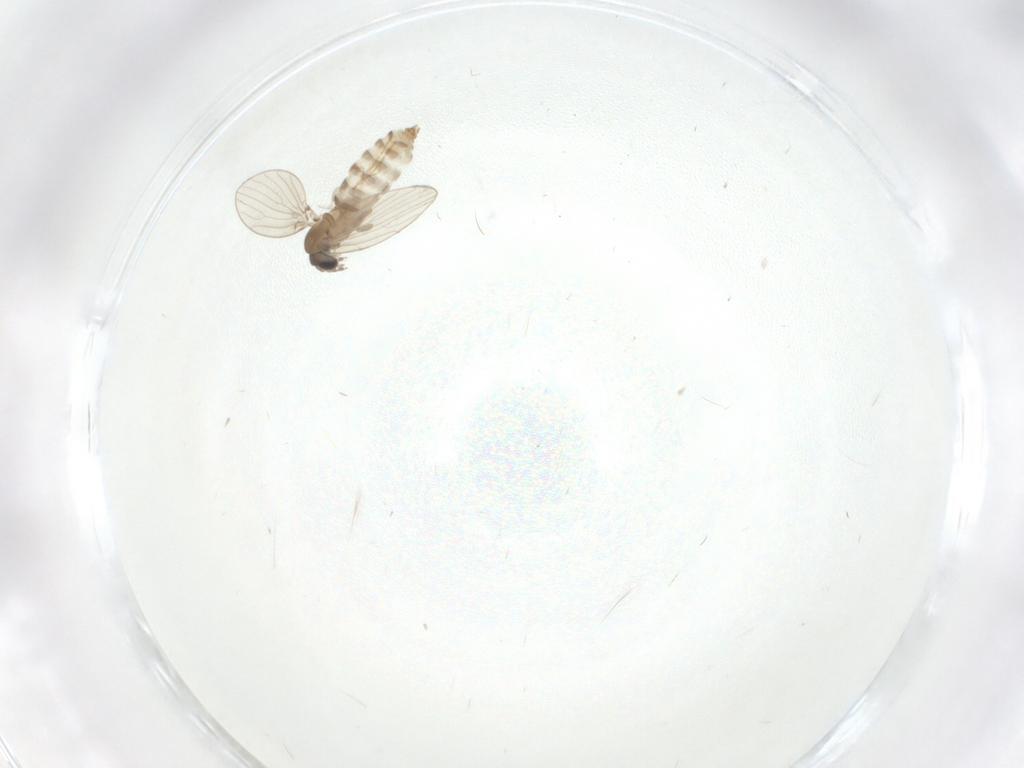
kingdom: Animalia
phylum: Arthropoda
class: Insecta
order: Diptera
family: Psychodidae
